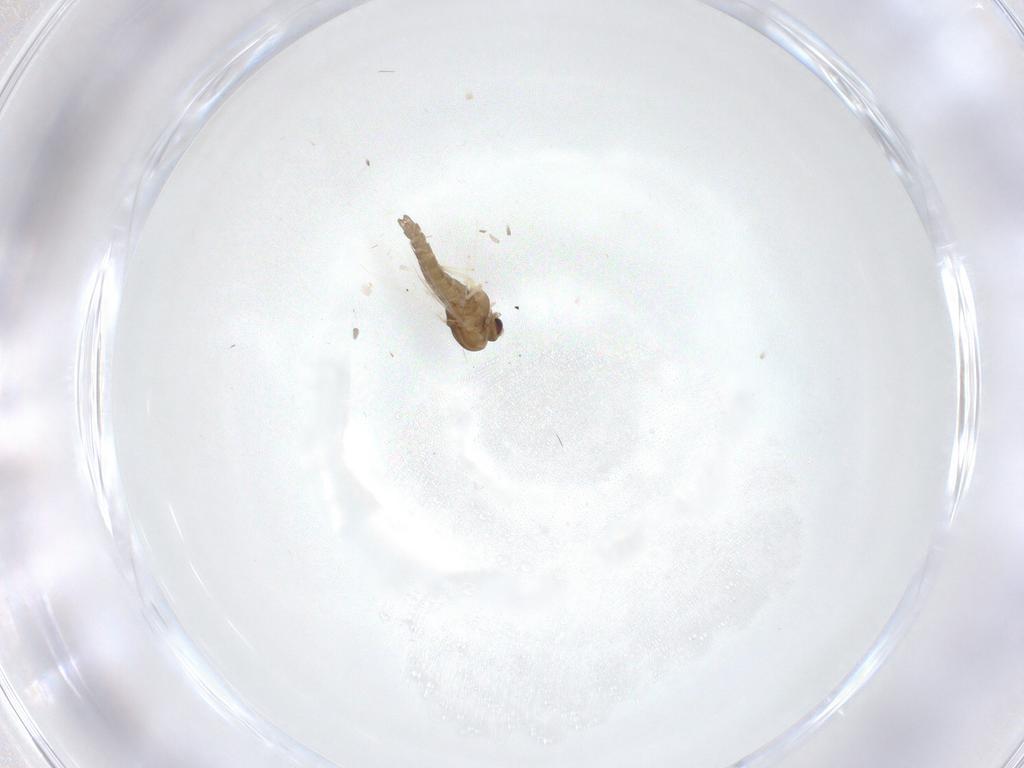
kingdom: Animalia
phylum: Arthropoda
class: Insecta
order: Diptera
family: Chironomidae
